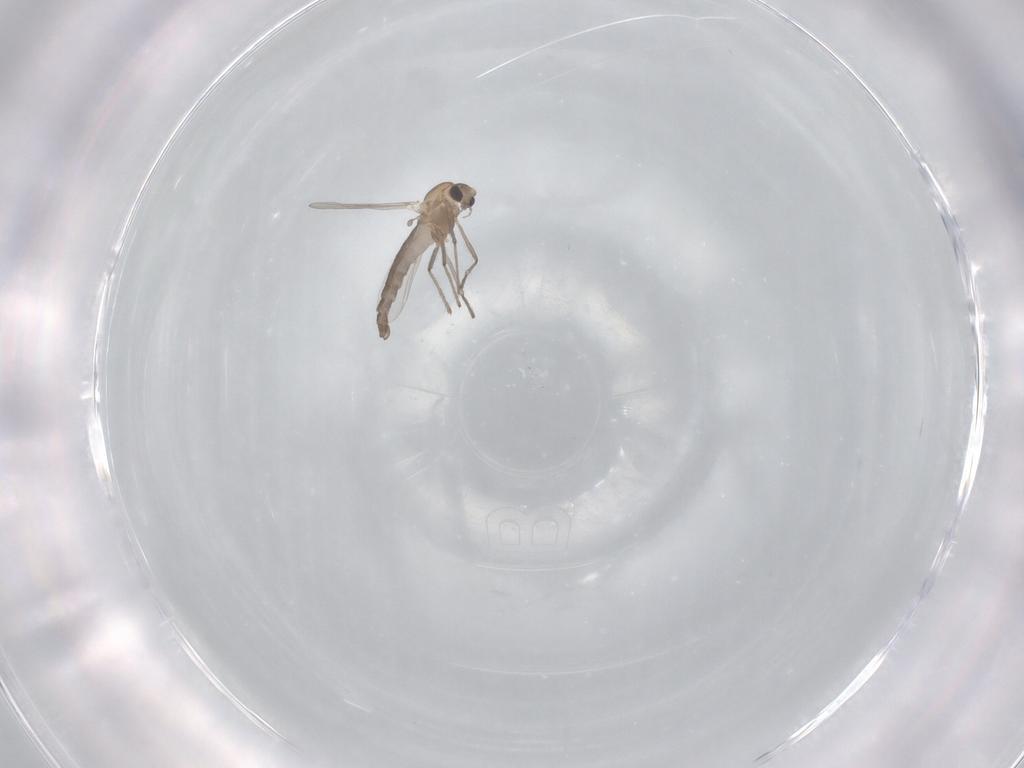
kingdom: Animalia
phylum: Arthropoda
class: Insecta
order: Diptera
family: Chironomidae
